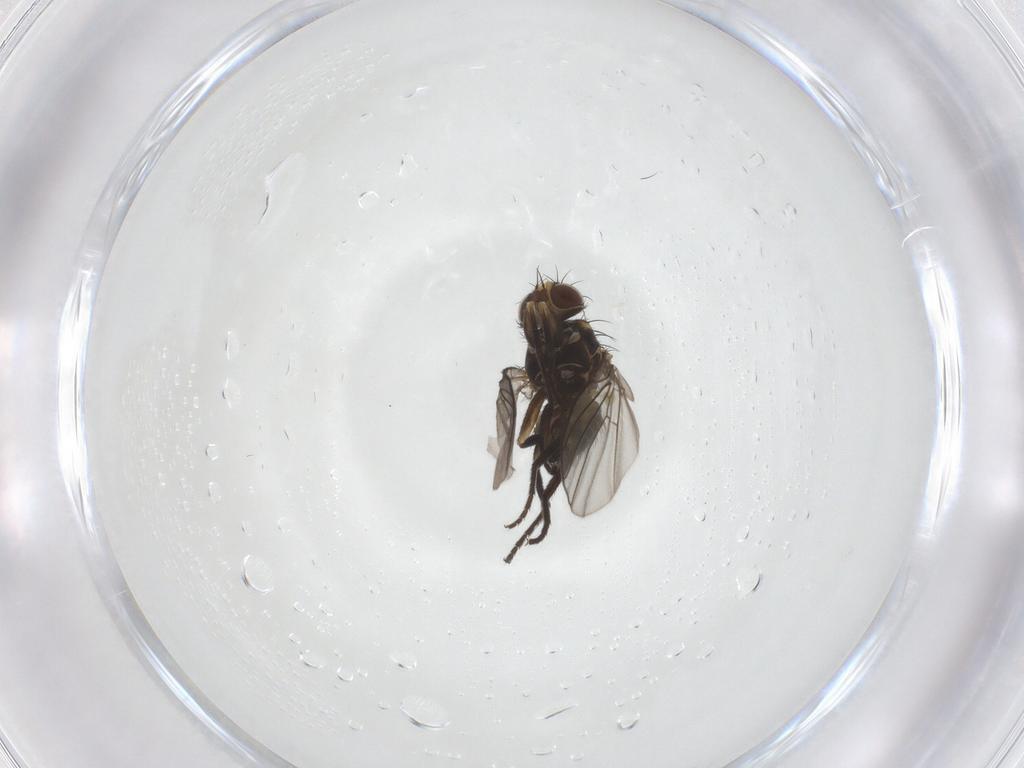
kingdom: Animalia
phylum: Arthropoda
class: Insecta
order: Diptera
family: Agromyzidae
